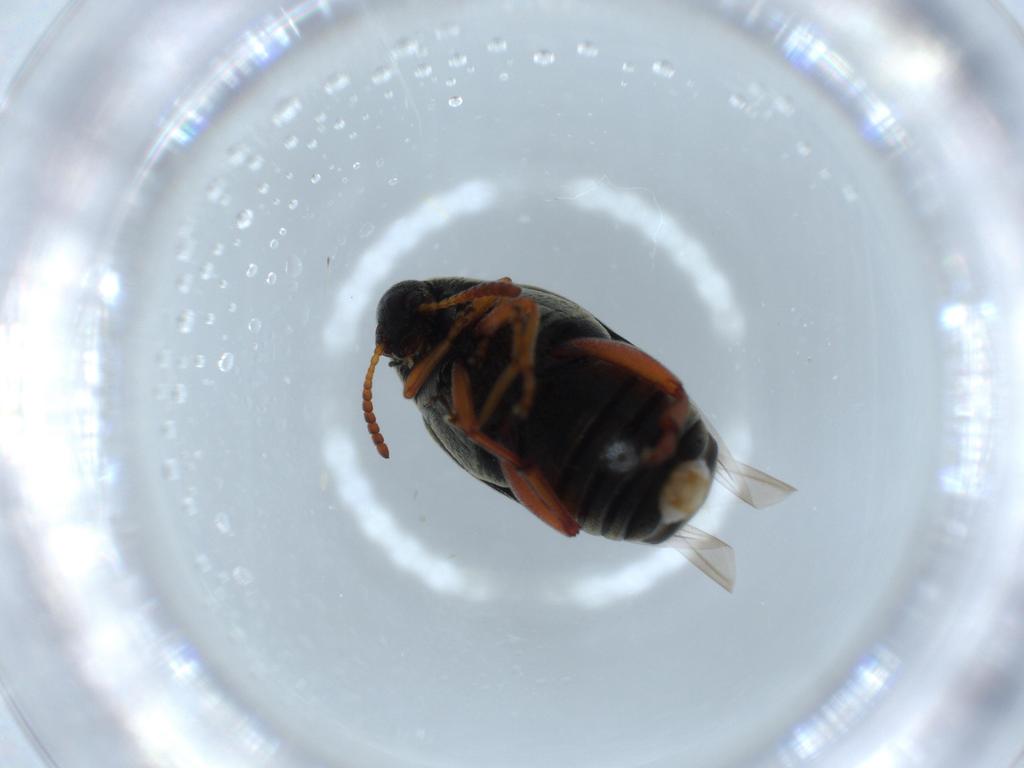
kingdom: Animalia
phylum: Arthropoda
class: Insecta
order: Coleoptera
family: Chrysomelidae
